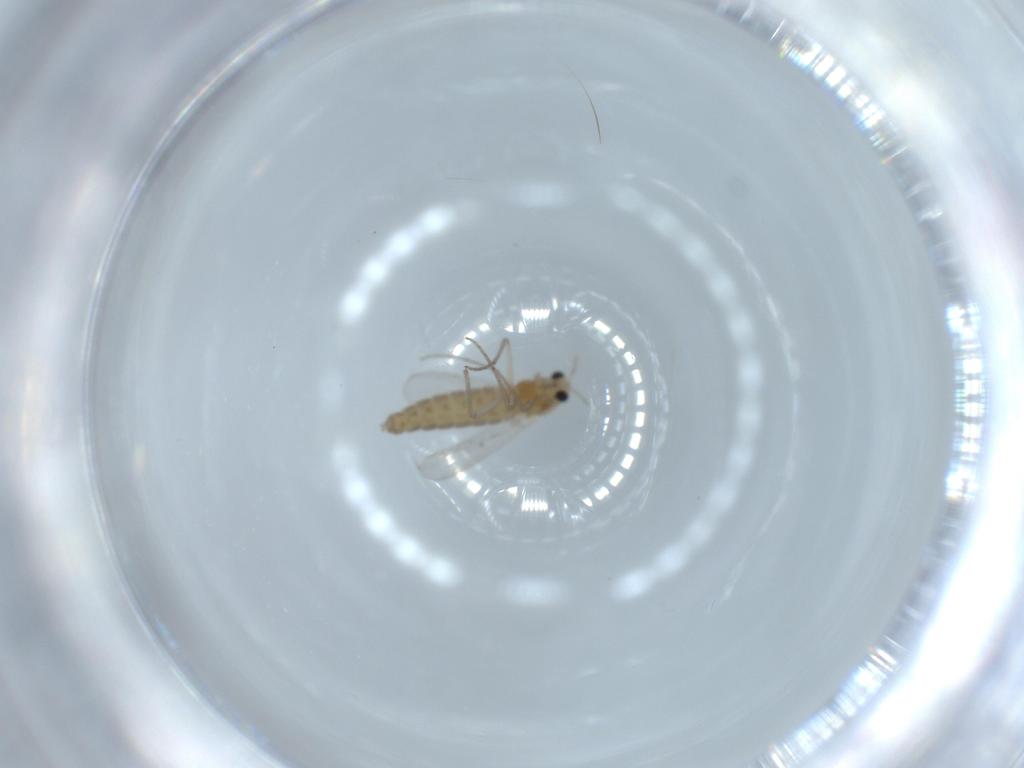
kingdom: Animalia
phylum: Arthropoda
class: Insecta
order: Diptera
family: Chironomidae
